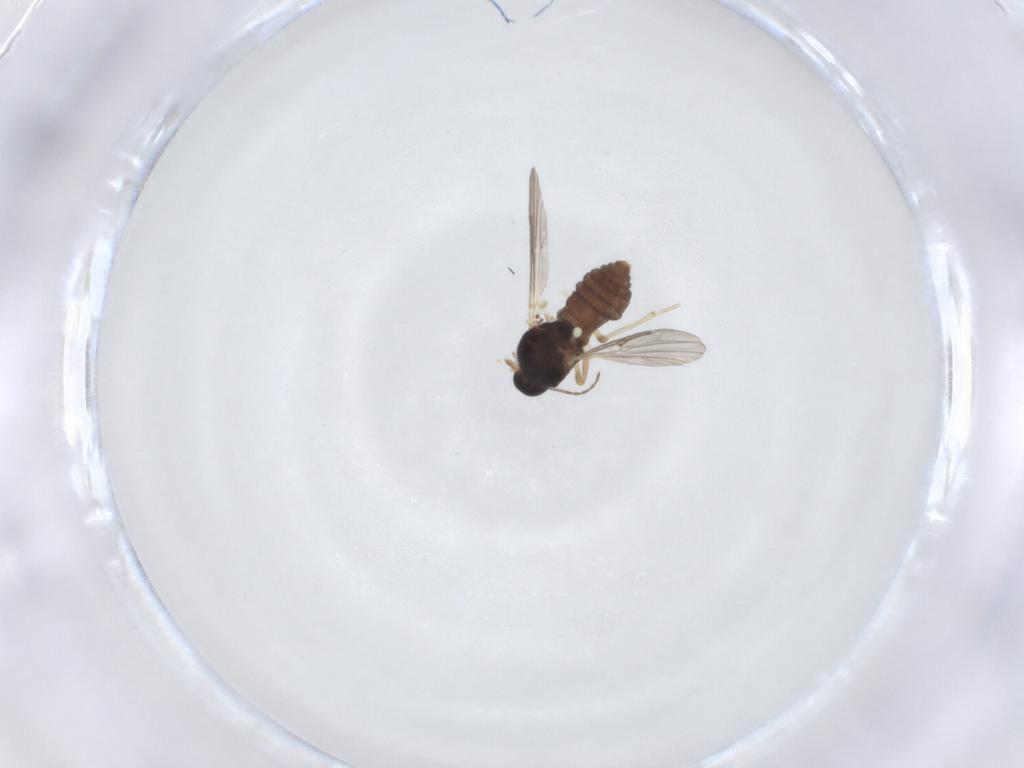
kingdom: Animalia
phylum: Arthropoda
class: Insecta
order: Diptera
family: Ceratopogonidae
